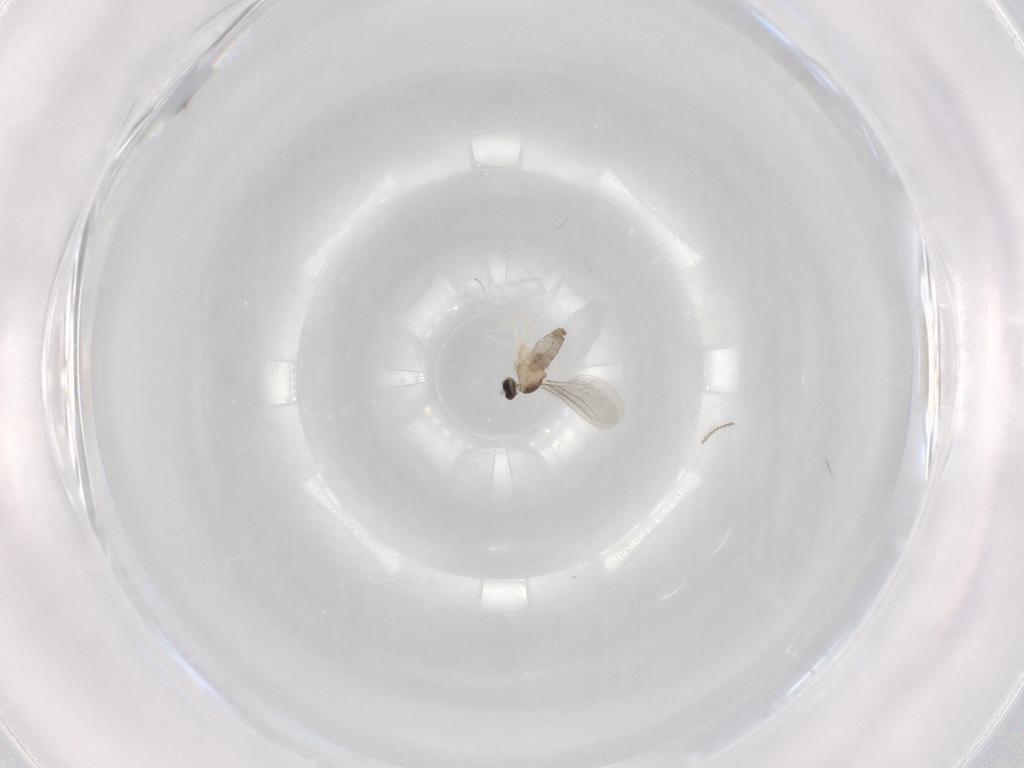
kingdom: Animalia
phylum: Arthropoda
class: Insecta
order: Diptera
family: Cecidomyiidae
